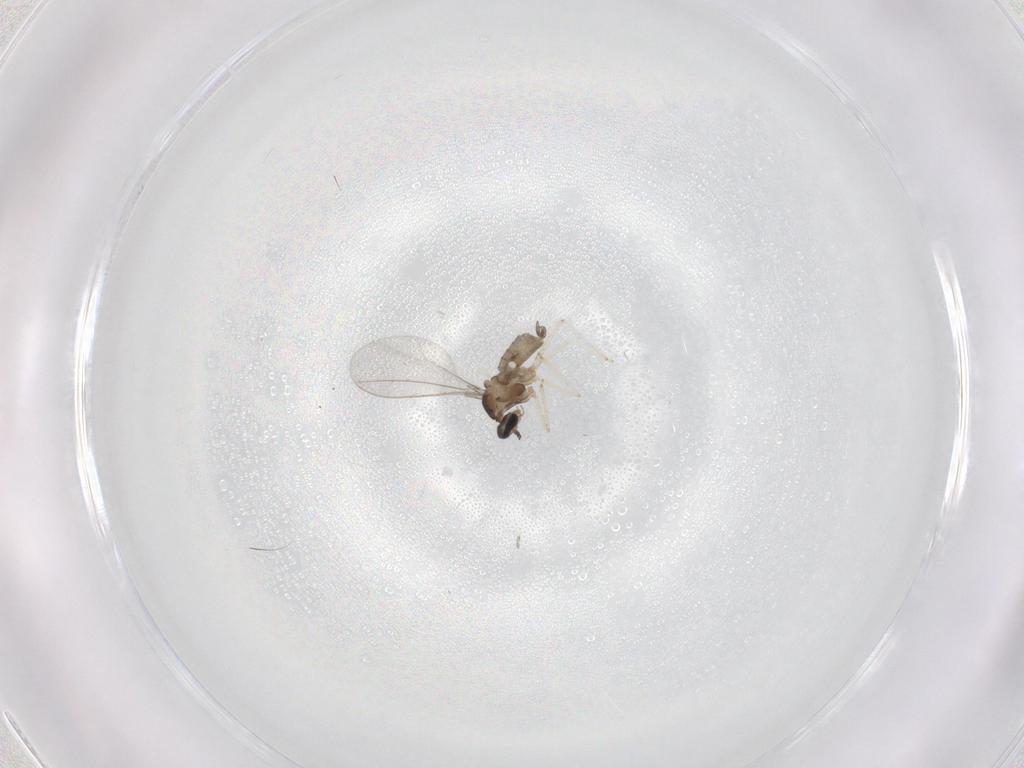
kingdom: Animalia
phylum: Arthropoda
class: Insecta
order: Diptera
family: Cecidomyiidae
